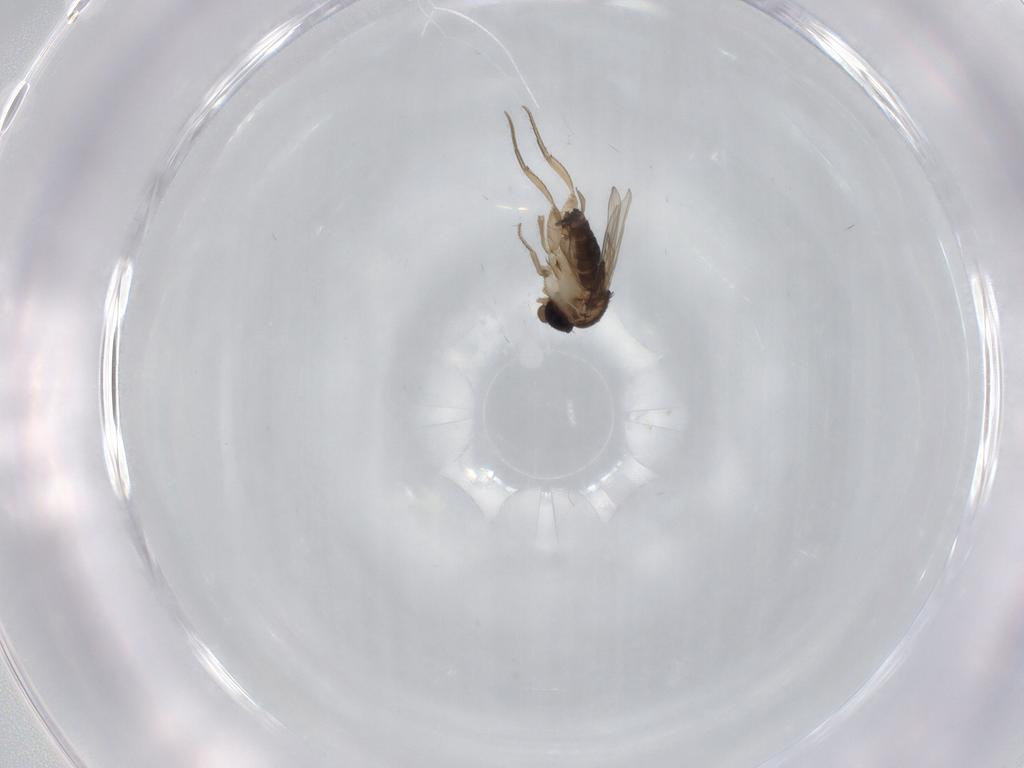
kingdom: Animalia
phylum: Arthropoda
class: Insecta
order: Diptera
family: Phoridae
